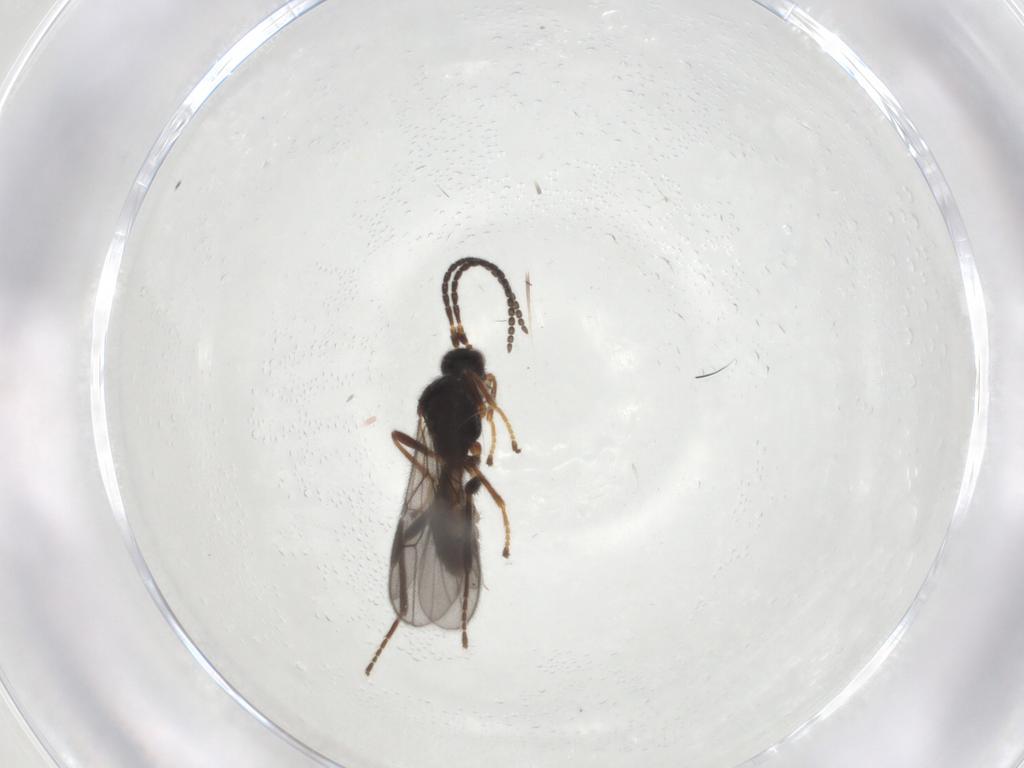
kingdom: Animalia
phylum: Arthropoda
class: Insecta
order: Hymenoptera
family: Braconidae
